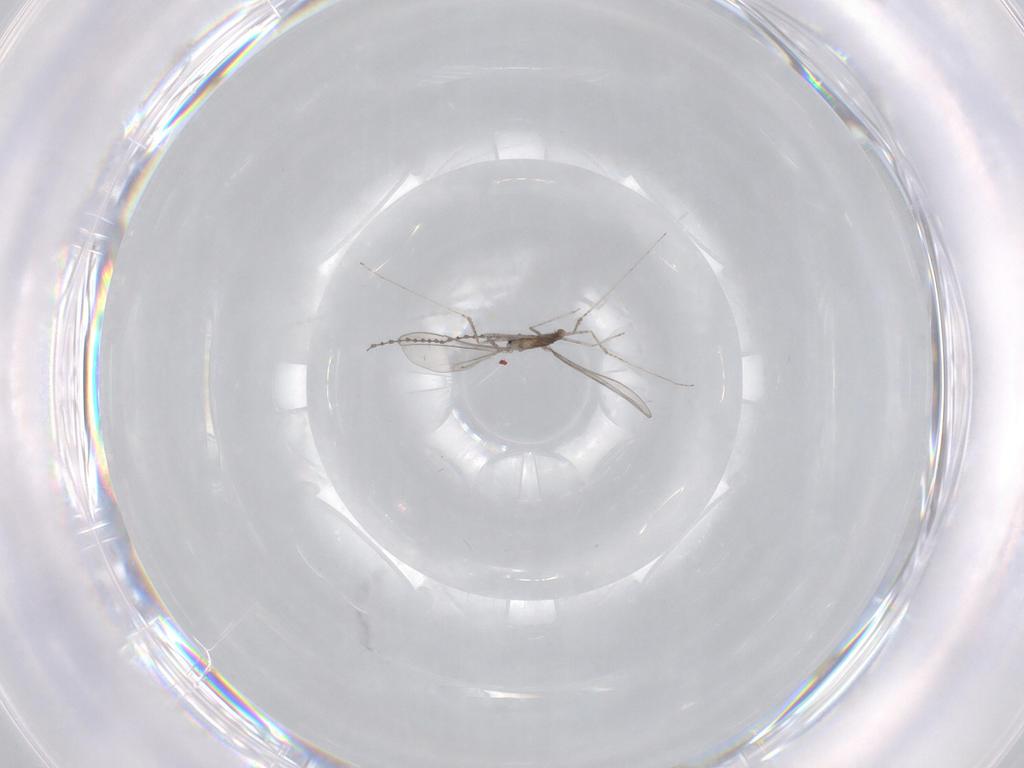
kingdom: Animalia
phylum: Arthropoda
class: Insecta
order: Diptera
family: Cecidomyiidae
